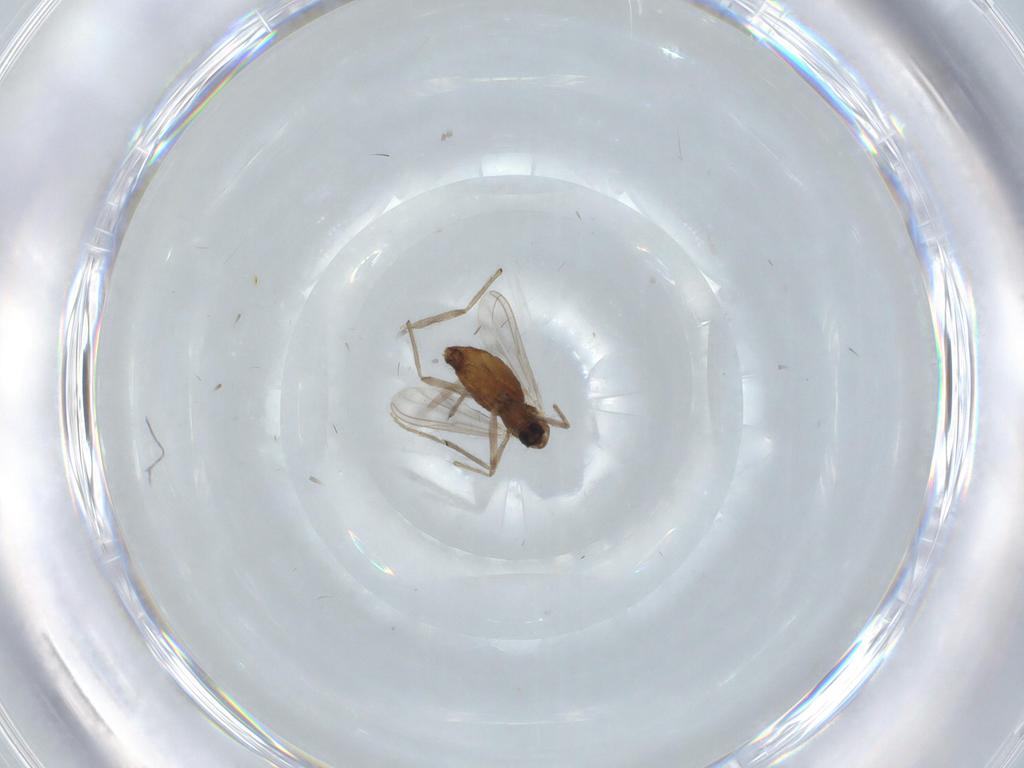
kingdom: Animalia
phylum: Arthropoda
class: Insecta
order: Diptera
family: Chironomidae
